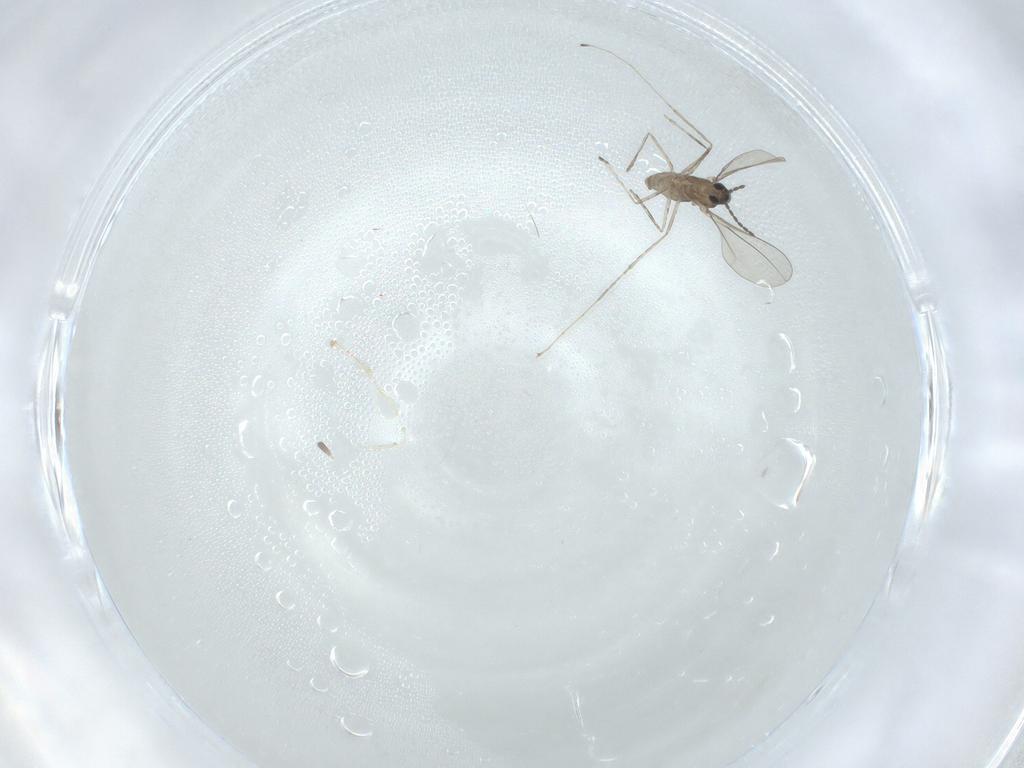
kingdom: Animalia
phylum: Arthropoda
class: Insecta
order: Diptera
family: Cecidomyiidae
